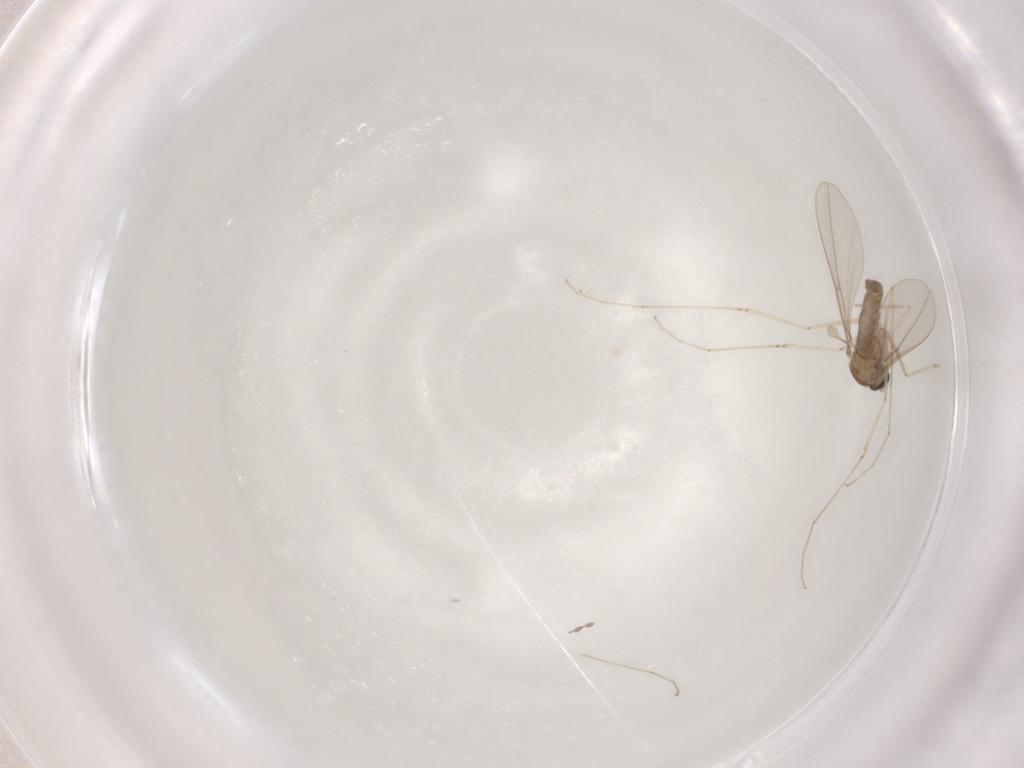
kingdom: Animalia
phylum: Arthropoda
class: Insecta
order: Diptera
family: Cecidomyiidae
